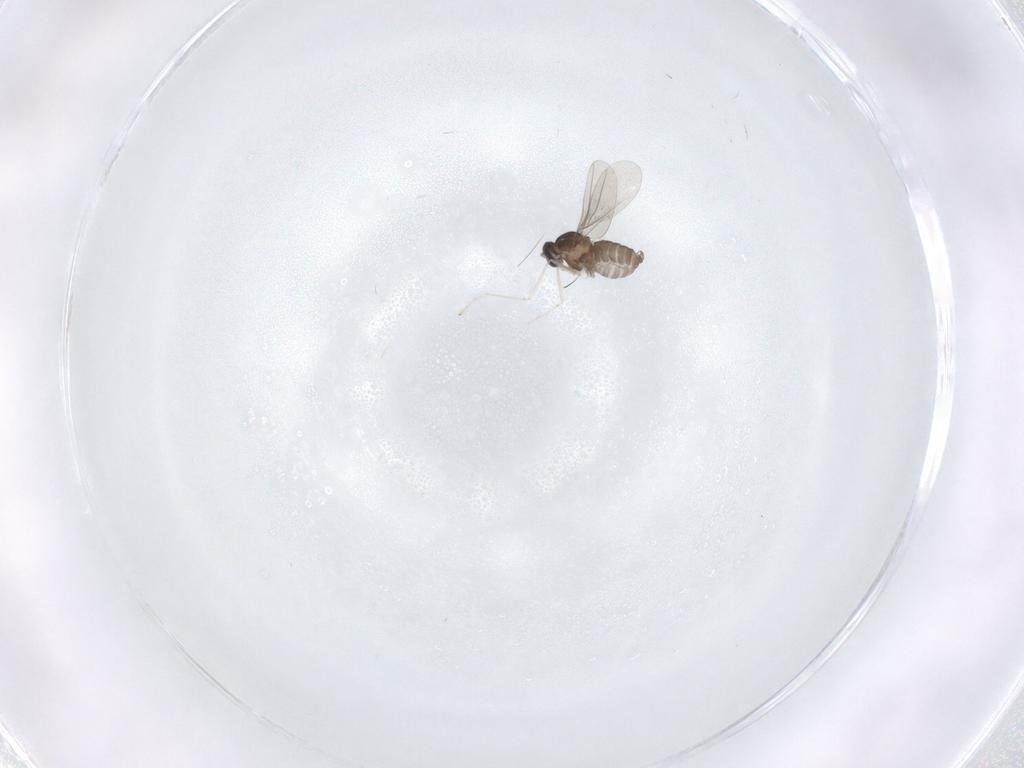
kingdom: Animalia
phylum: Arthropoda
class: Insecta
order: Diptera
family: Cecidomyiidae
